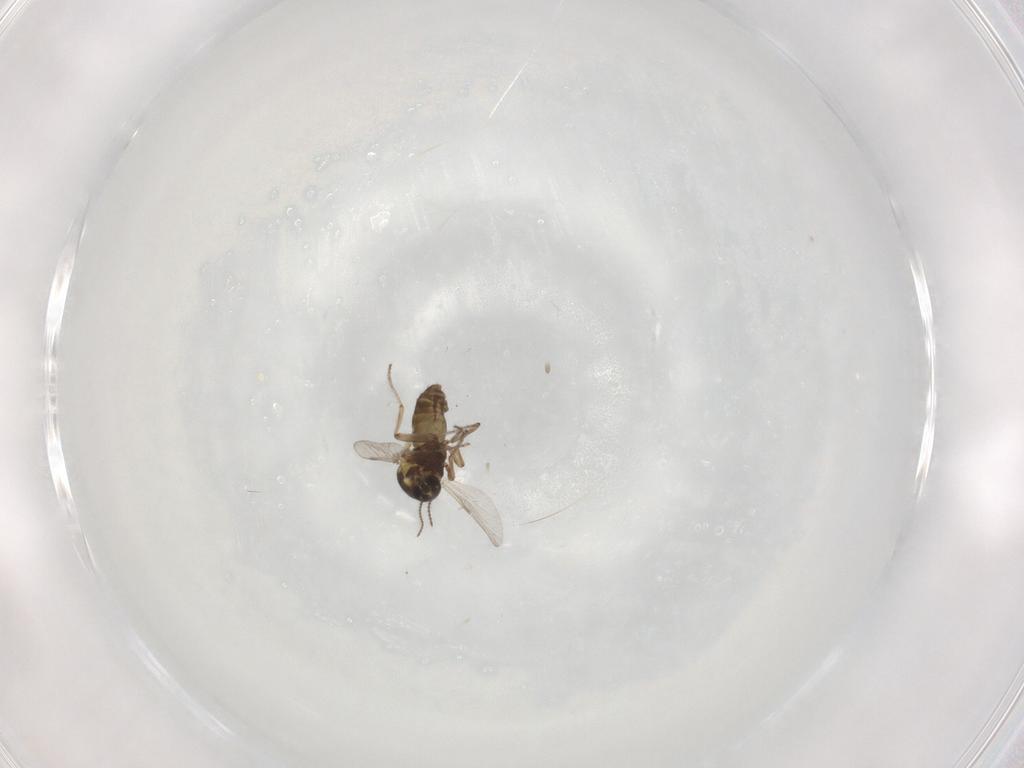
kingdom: Animalia
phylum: Arthropoda
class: Insecta
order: Diptera
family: Ceratopogonidae
